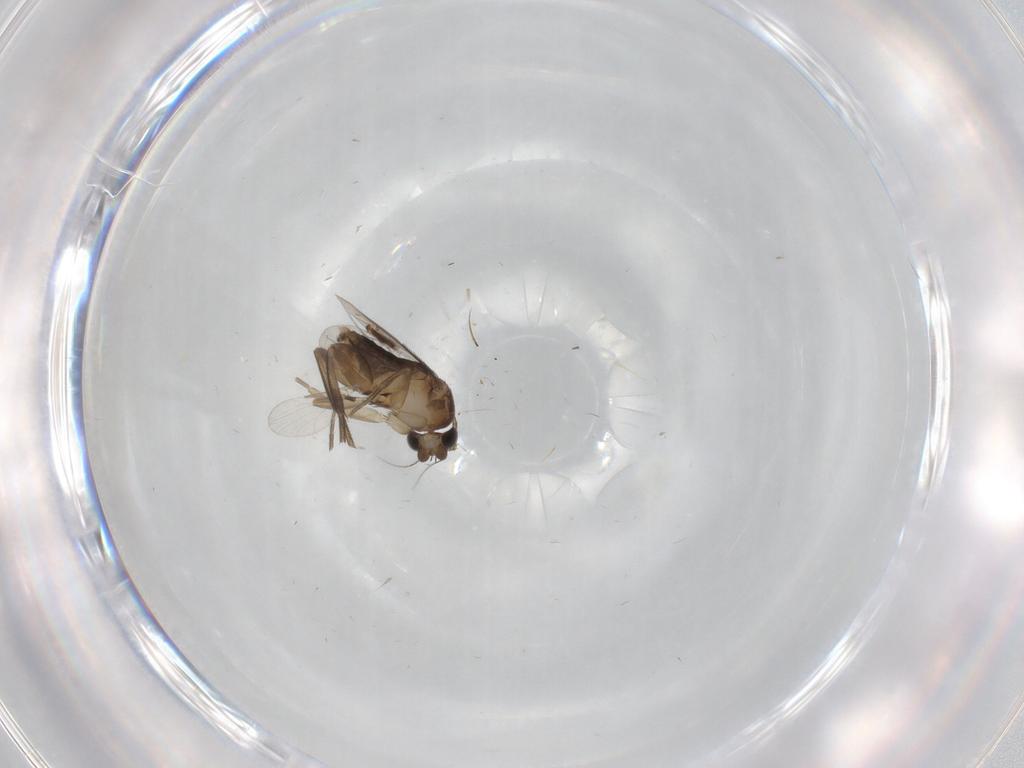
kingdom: Animalia
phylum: Arthropoda
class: Insecta
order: Diptera
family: Phoridae
